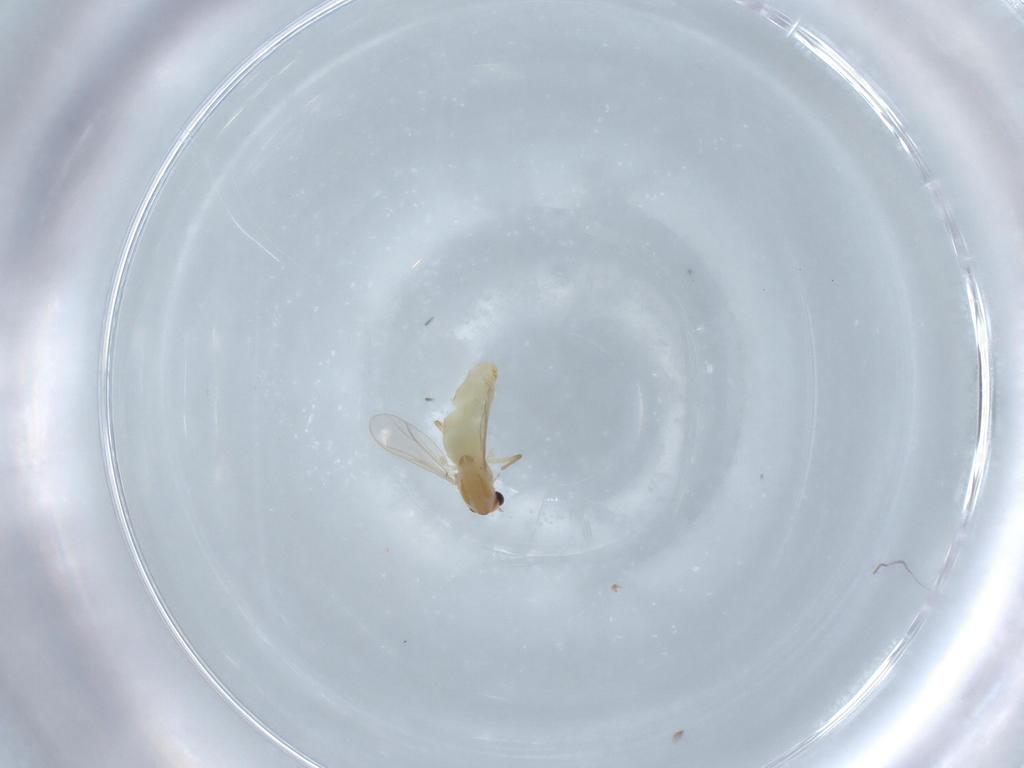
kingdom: Animalia
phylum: Arthropoda
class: Insecta
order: Diptera
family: Chironomidae
